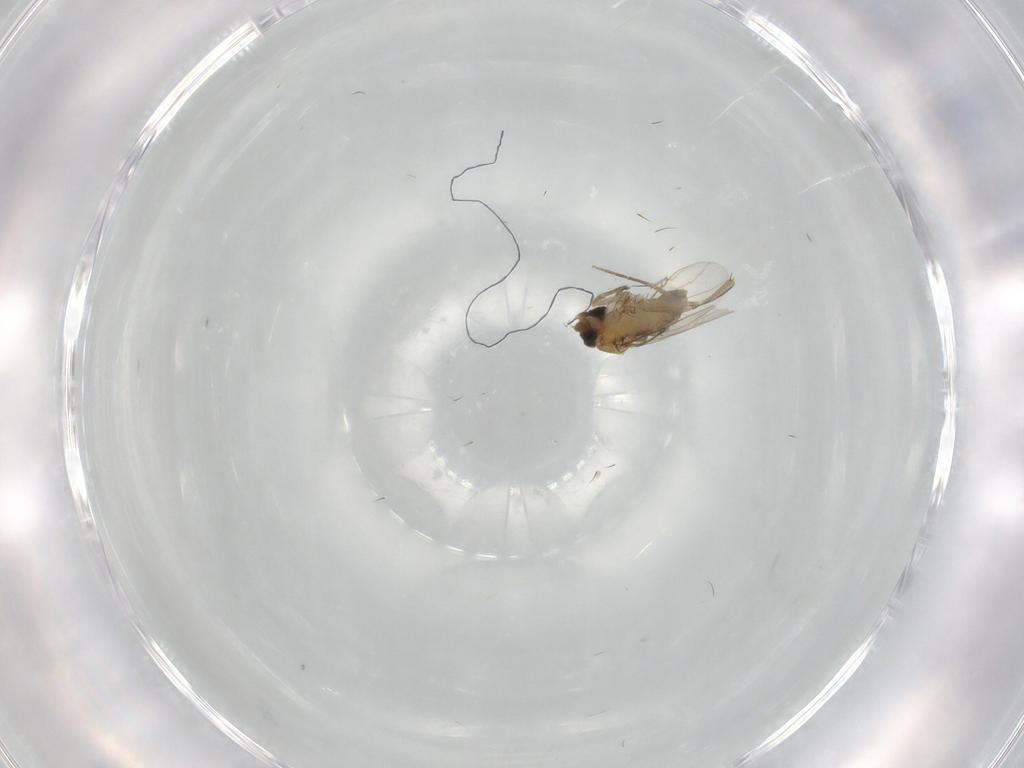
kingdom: Animalia
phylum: Arthropoda
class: Insecta
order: Diptera
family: Phoridae
